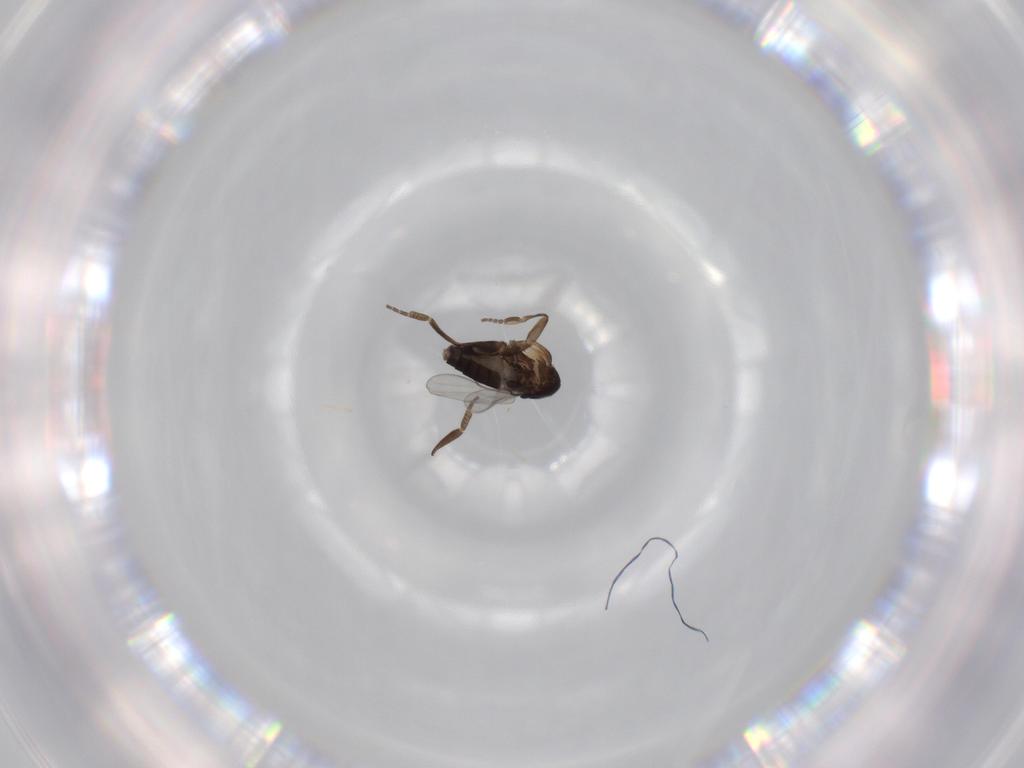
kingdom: Animalia
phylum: Arthropoda
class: Insecta
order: Diptera
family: Phoridae
